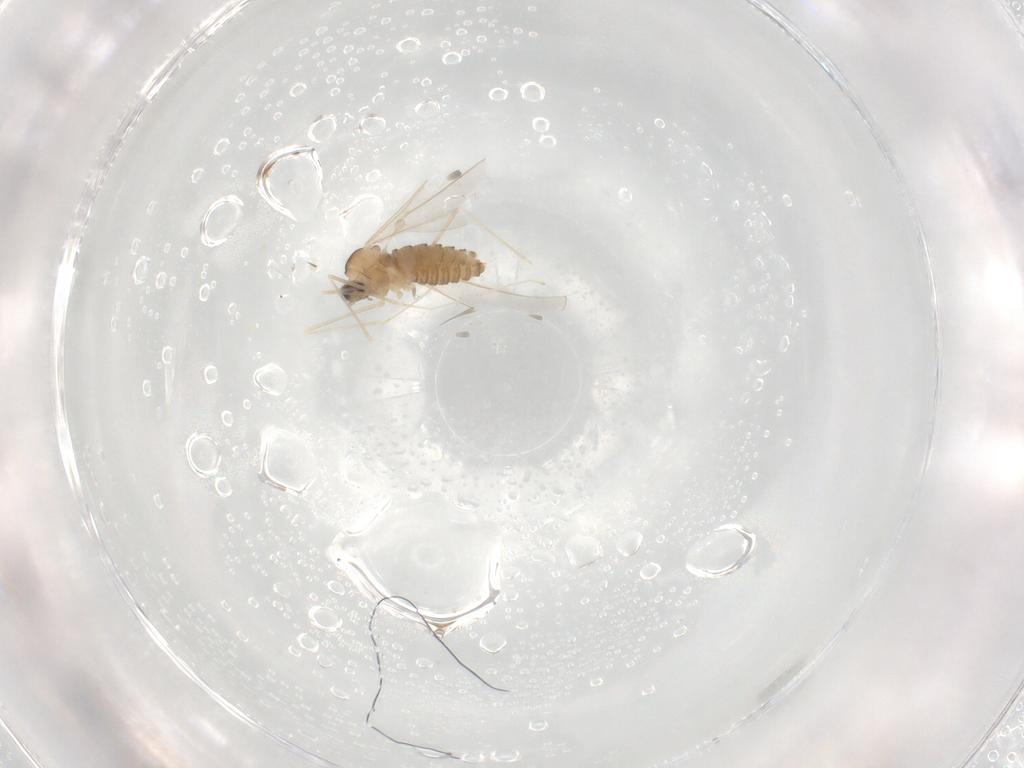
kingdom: Animalia
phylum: Arthropoda
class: Insecta
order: Diptera
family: Cecidomyiidae
